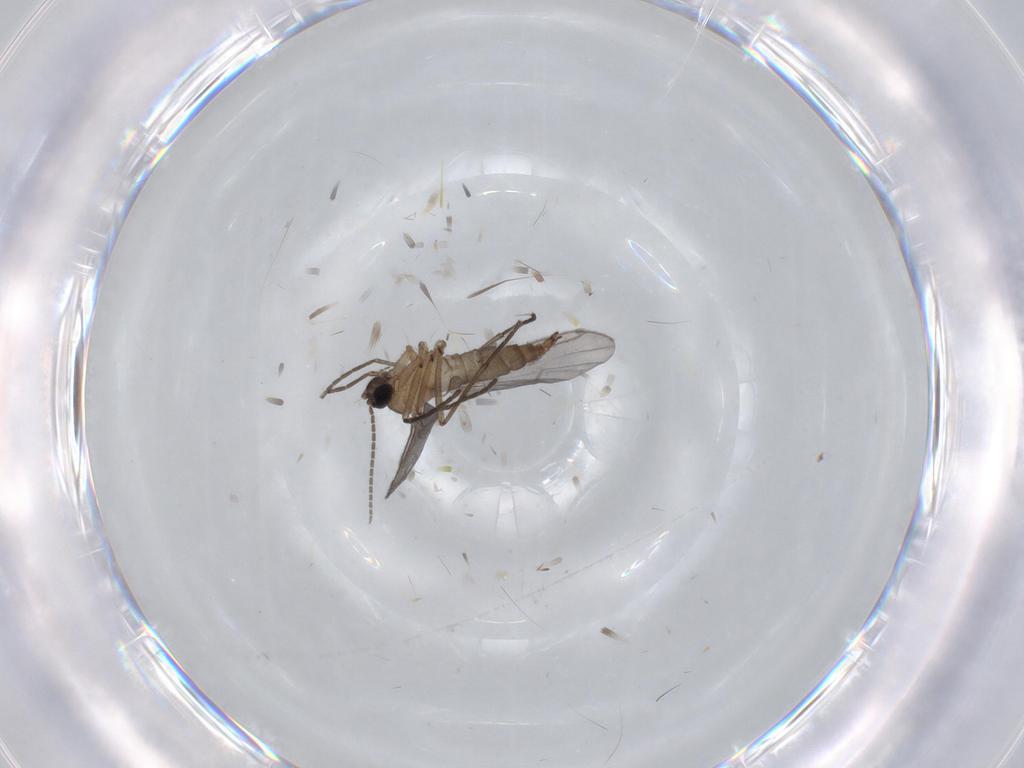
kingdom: Animalia
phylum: Arthropoda
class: Insecta
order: Diptera
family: Sciaridae
